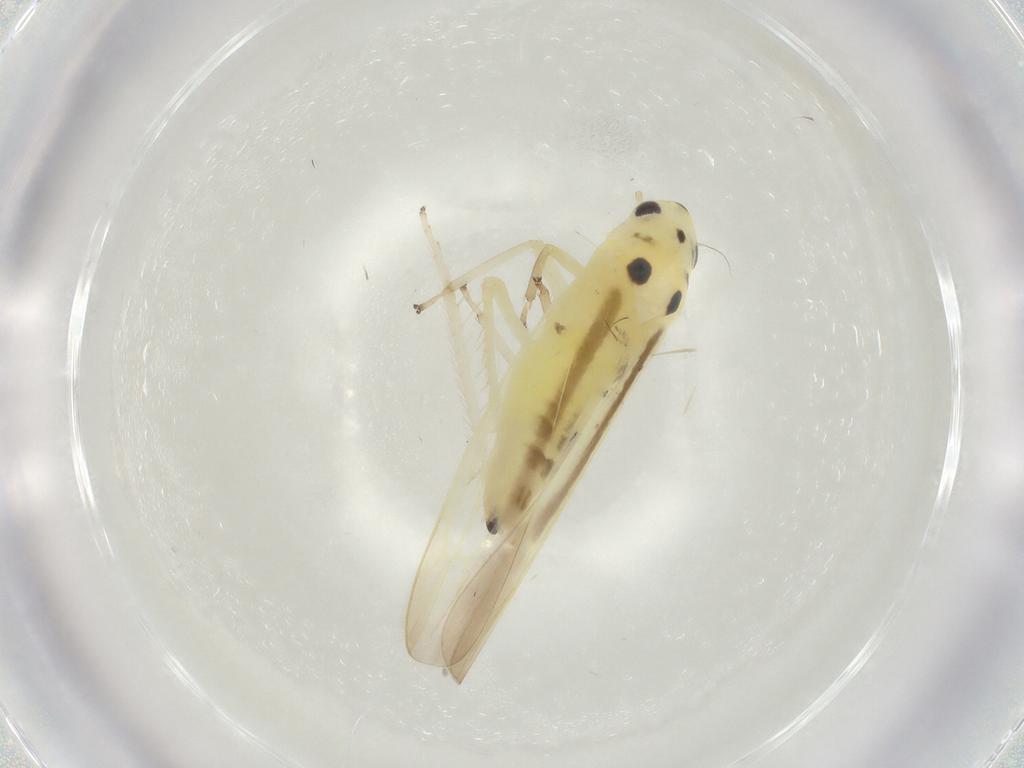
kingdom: Animalia
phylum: Arthropoda
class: Insecta
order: Hemiptera
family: Cicadellidae
